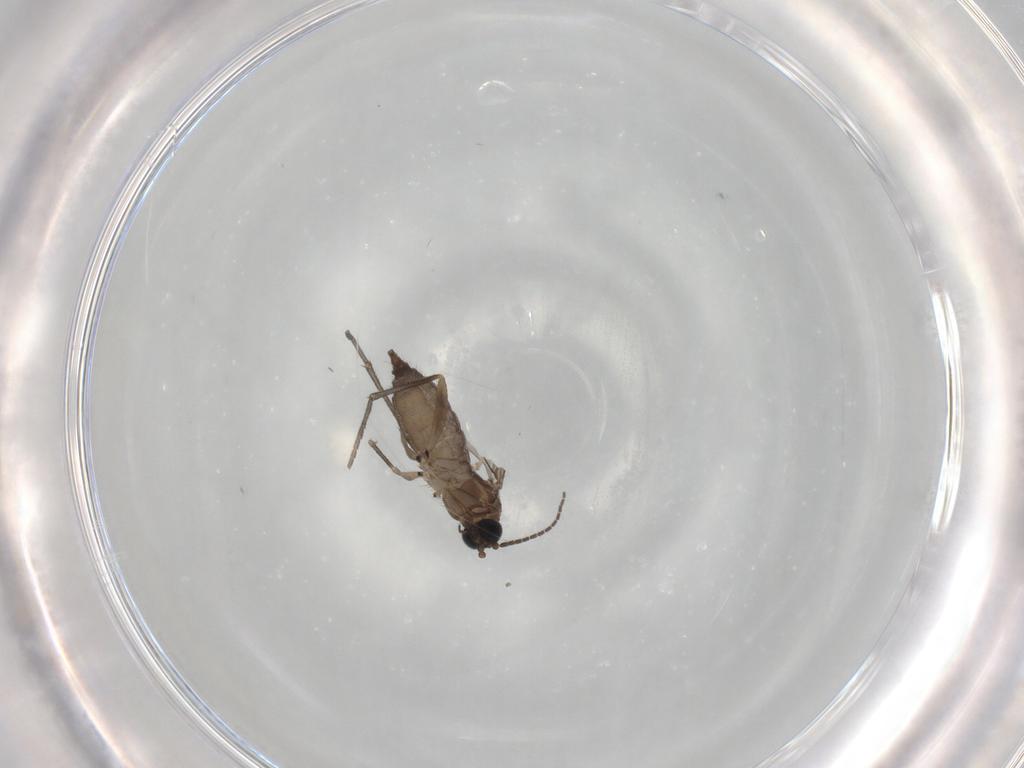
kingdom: Animalia
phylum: Arthropoda
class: Insecta
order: Diptera
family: Sciaridae
